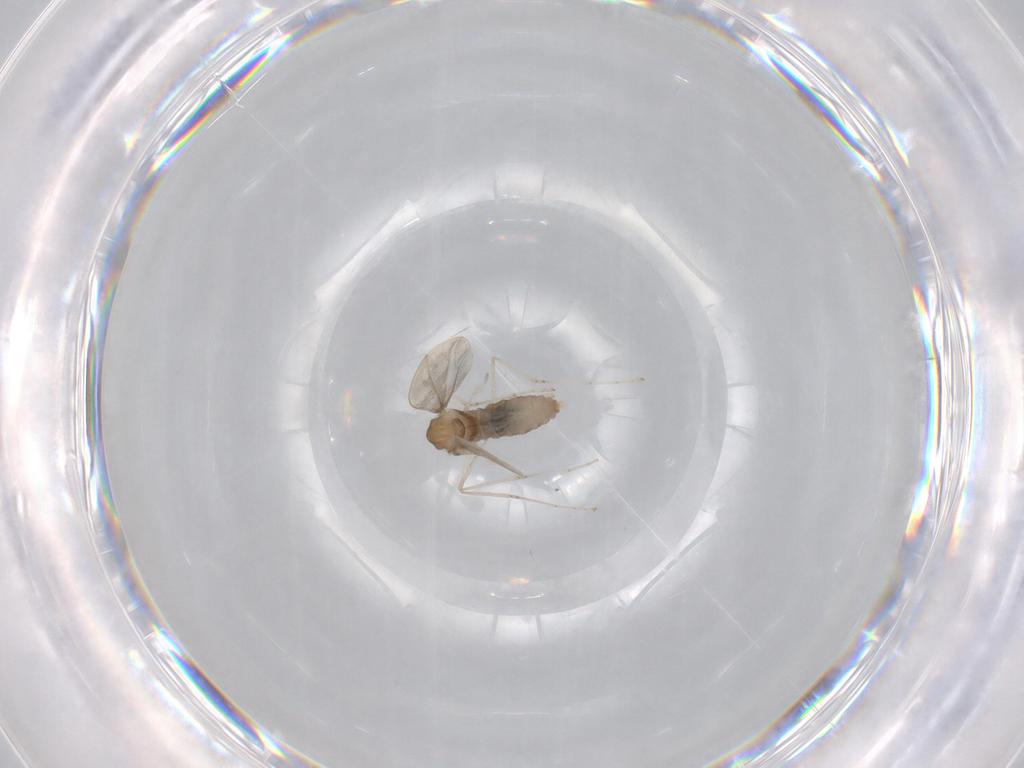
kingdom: Animalia
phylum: Arthropoda
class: Insecta
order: Diptera
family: Cecidomyiidae
